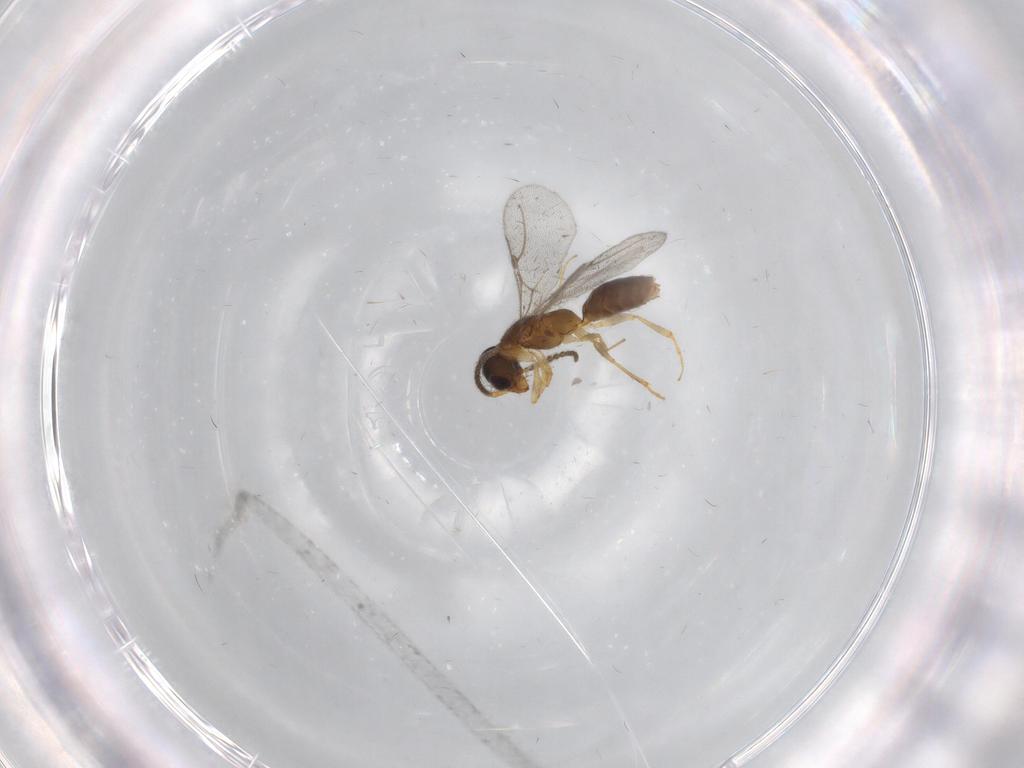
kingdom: Animalia
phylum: Arthropoda
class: Insecta
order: Hymenoptera
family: Bethylidae
